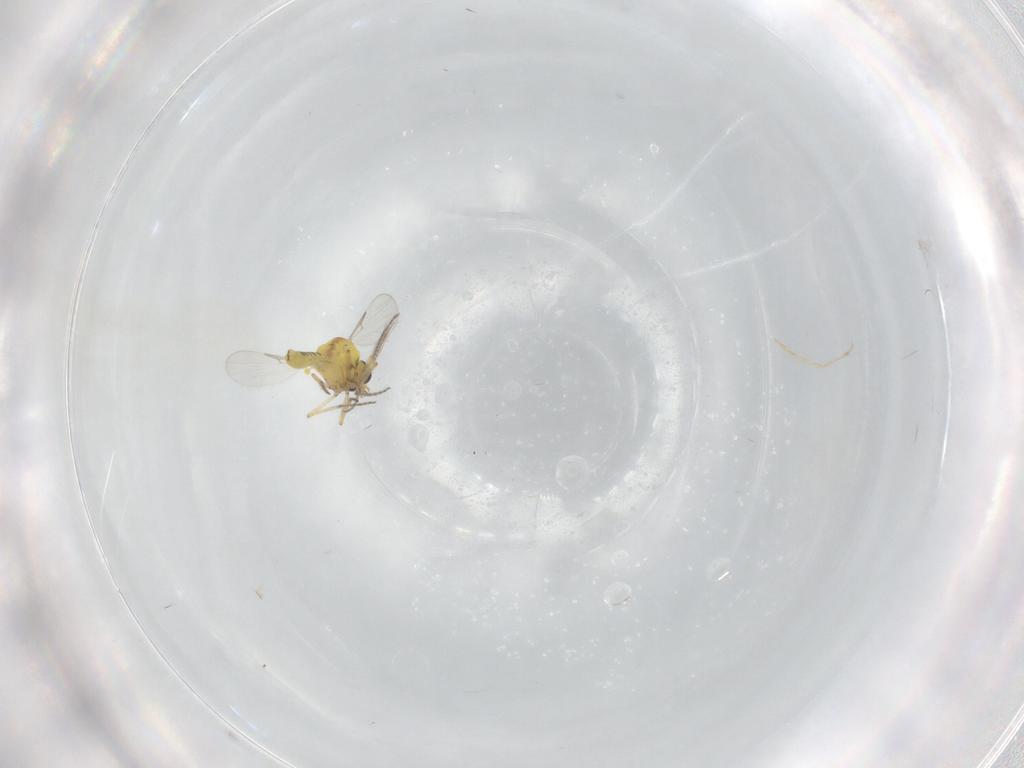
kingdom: Animalia
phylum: Arthropoda
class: Insecta
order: Diptera
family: Ceratopogonidae
